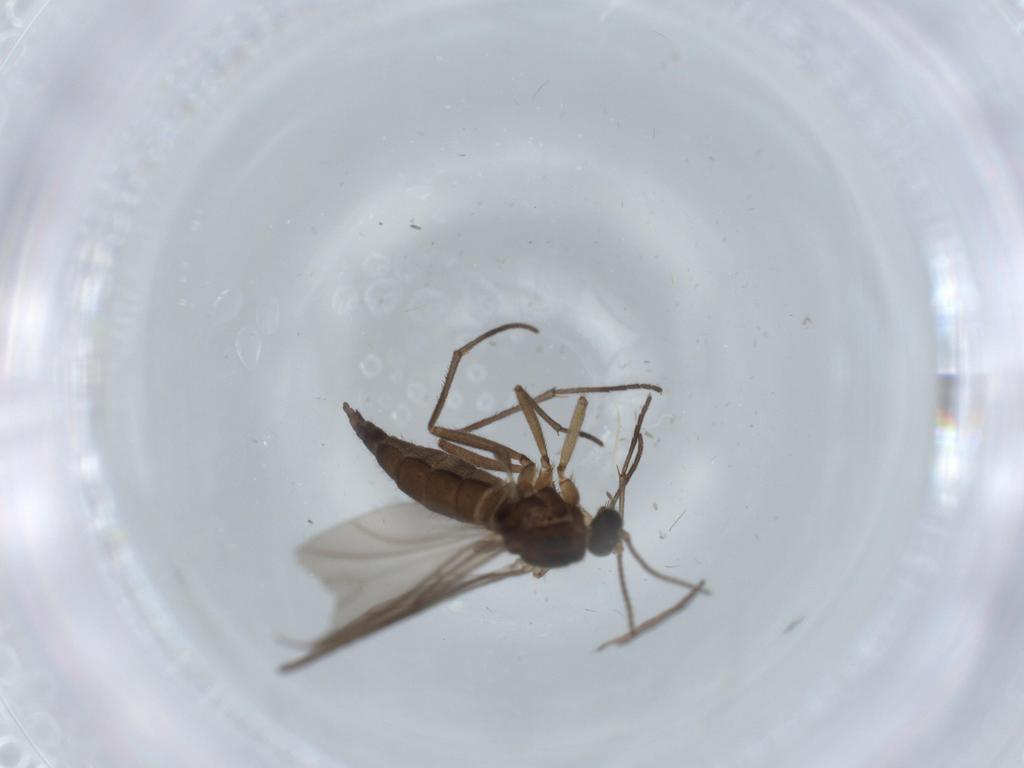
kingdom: Animalia
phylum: Arthropoda
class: Insecta
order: Diptera
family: Sciaridae
